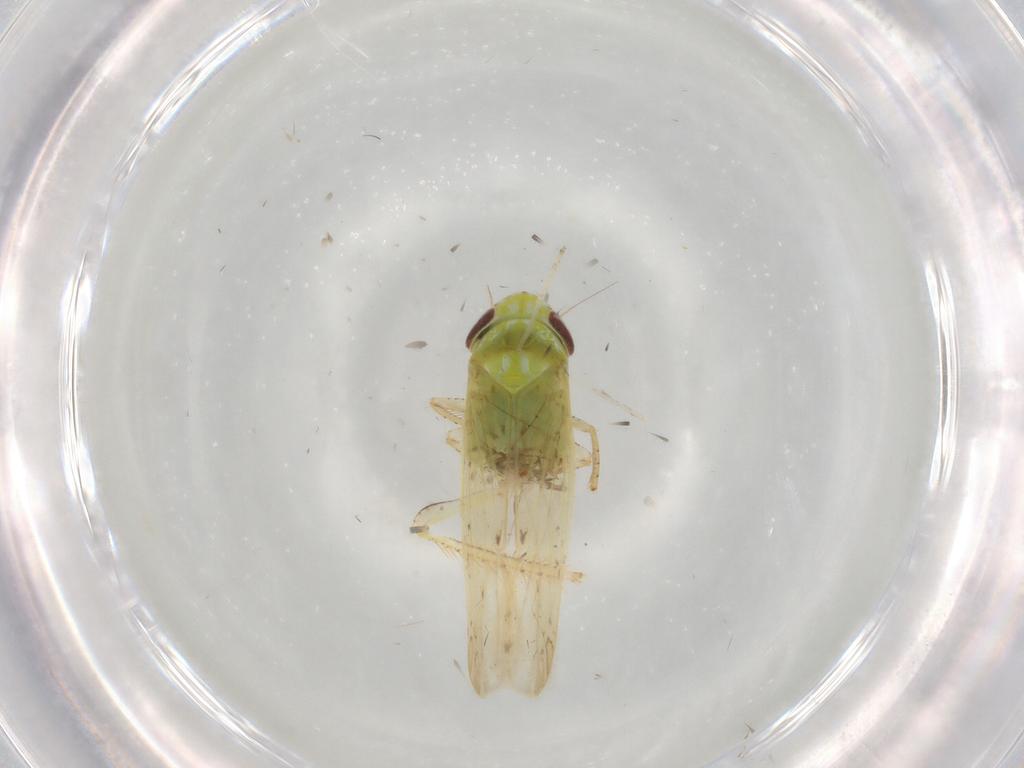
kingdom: Animalia
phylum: Arthropoda
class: Insecta
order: Hemiptera
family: Cicadellidae
